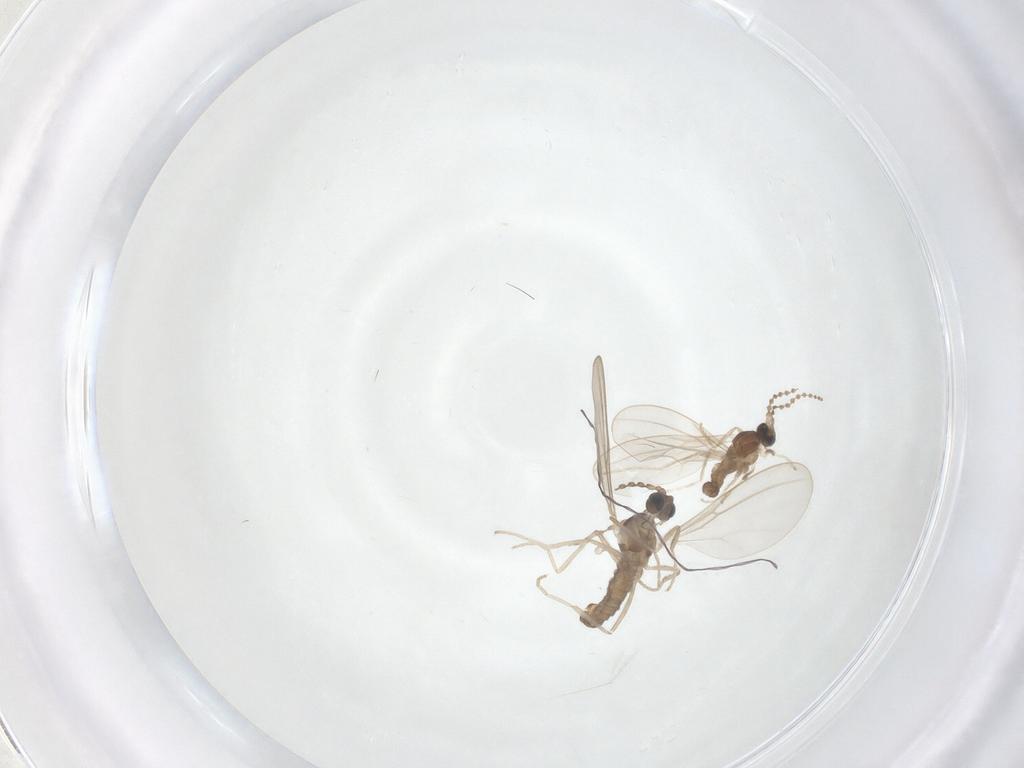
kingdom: Animalia
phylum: Arthropoda
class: Insecta
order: Diptera
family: Cecidomyiidae
